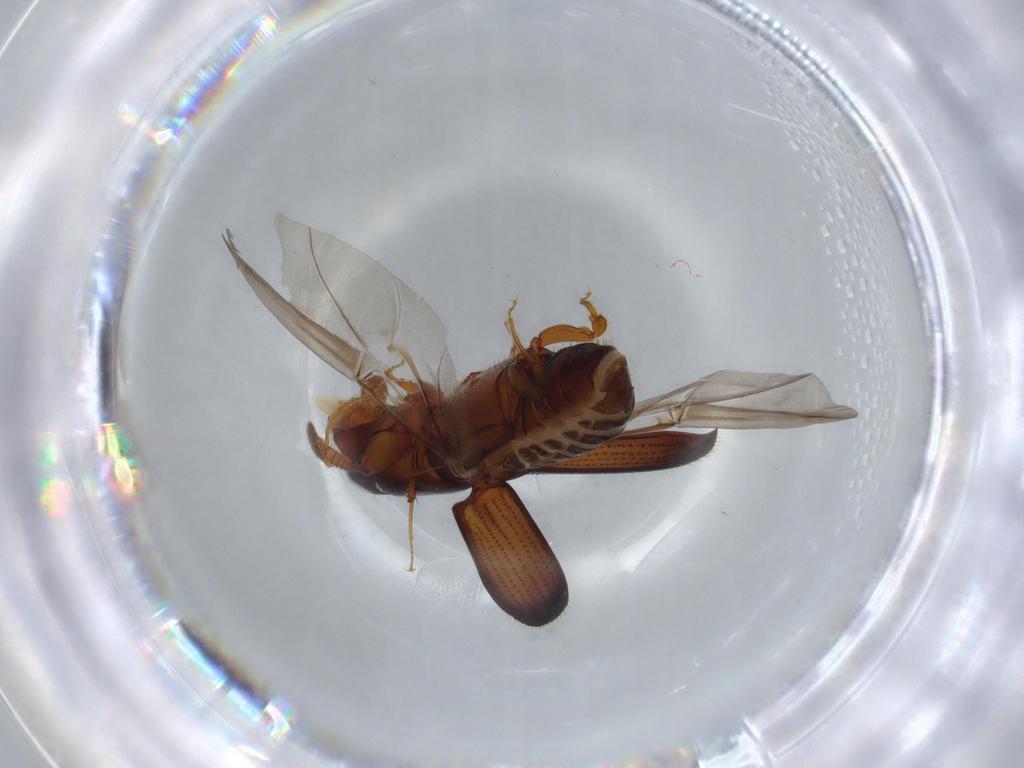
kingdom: Animalia
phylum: Arthropoda
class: Insecta
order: Coleoptera
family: Curculionidae
